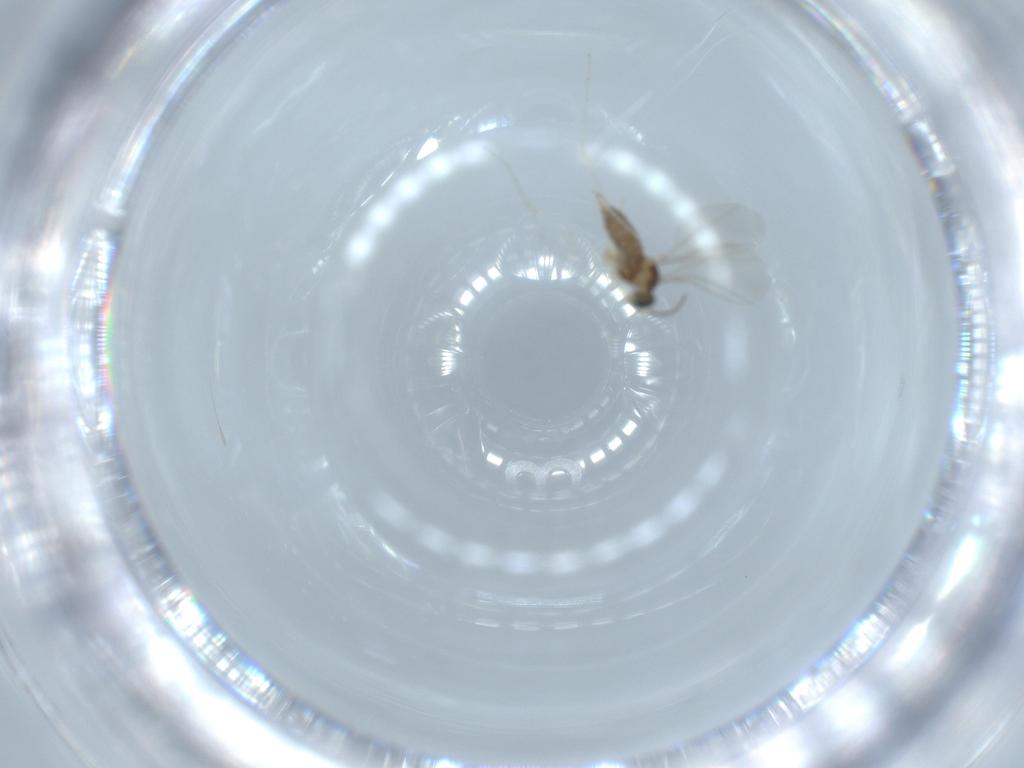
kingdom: Animalia
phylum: Arthropoda
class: Insecta
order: Diptera
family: Cecidomyiidae
